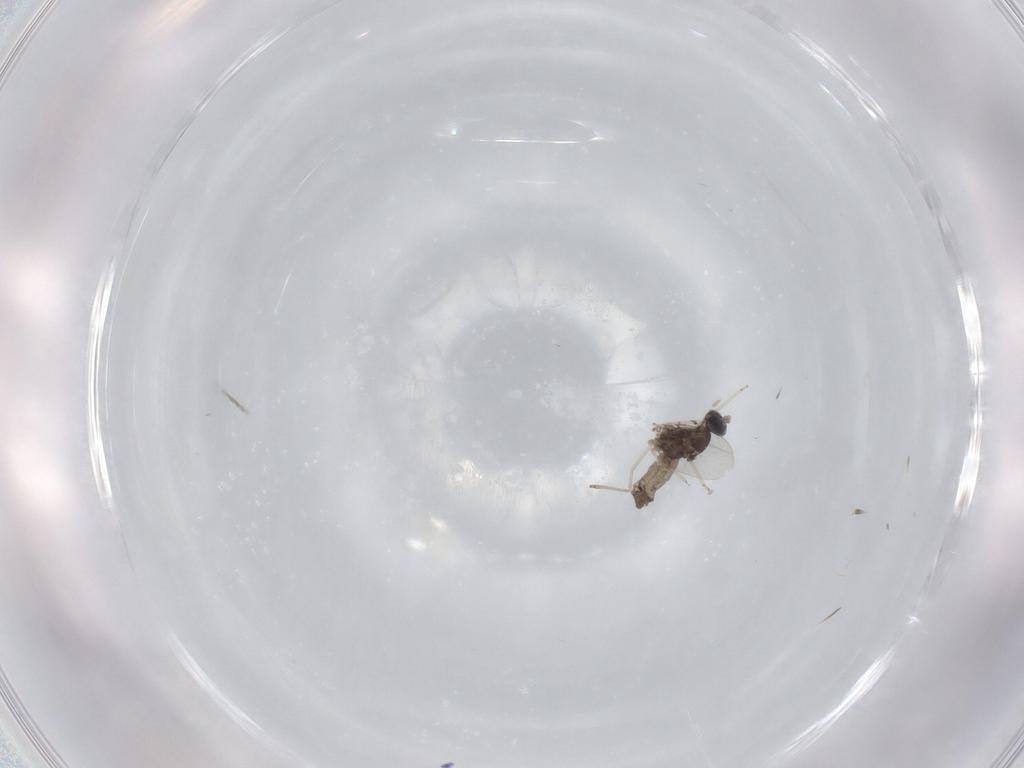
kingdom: Animalia
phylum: Arthropoda
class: Insecta
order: Diptera
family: Cecidomyiidae
